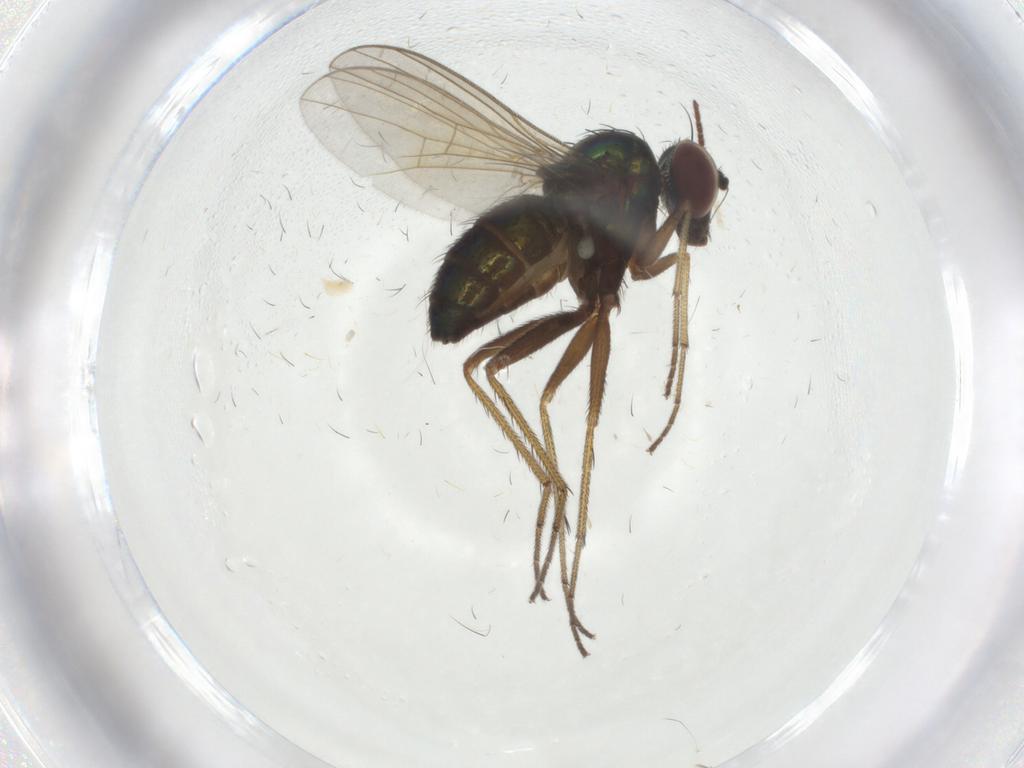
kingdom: Animalia
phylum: Arthropoda
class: Insecta
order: Diptera
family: Dolichopodidae
